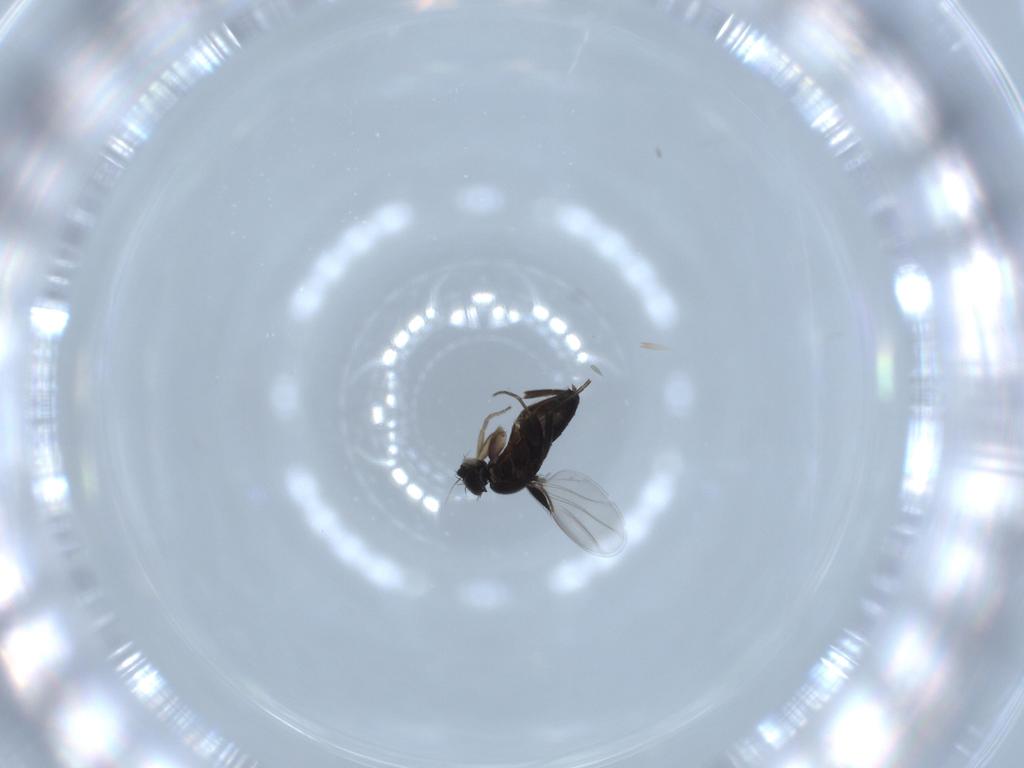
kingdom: Animalia
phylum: Arthropoda
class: Insecta
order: Diptera
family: Phoridae
